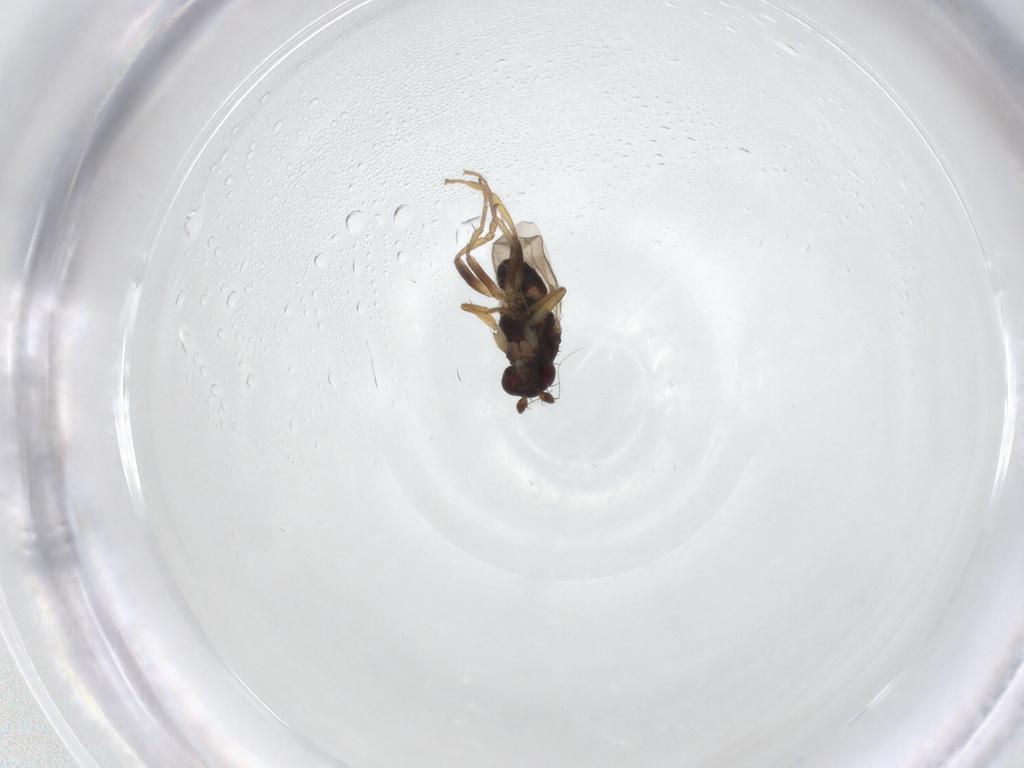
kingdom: Animalia
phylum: Arthropoda
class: Insecta
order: Diptera
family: Sphaeroceridae
